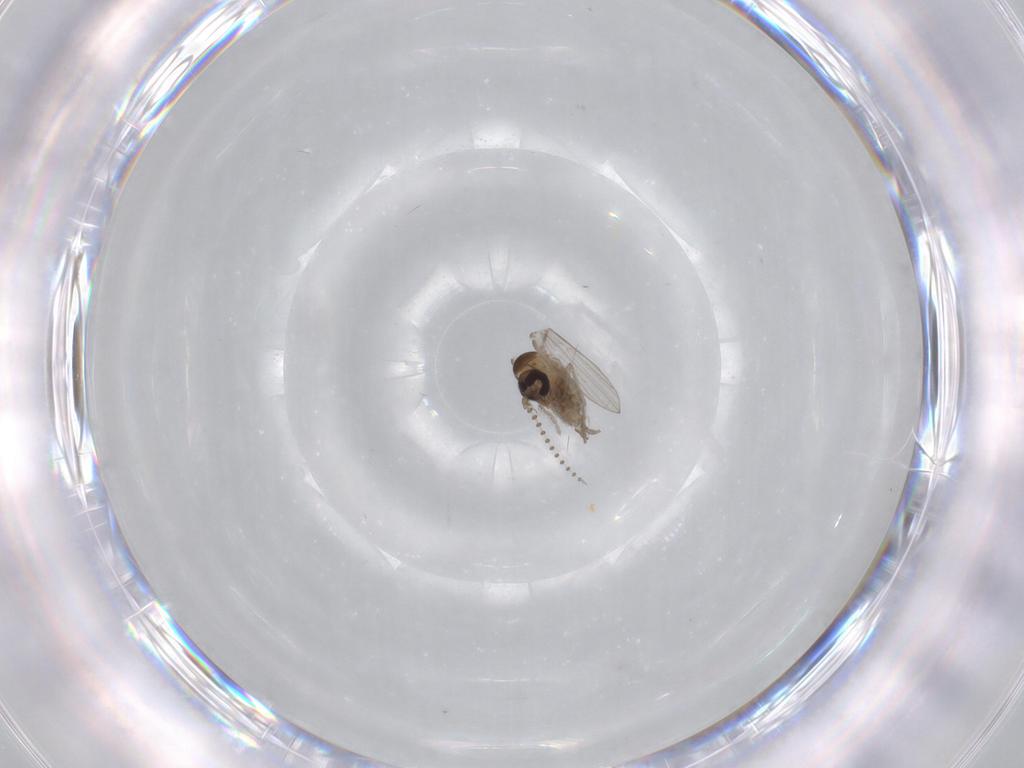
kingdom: Animalia
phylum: Arthropoda
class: Insecta
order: Diptera
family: Psychodidae
